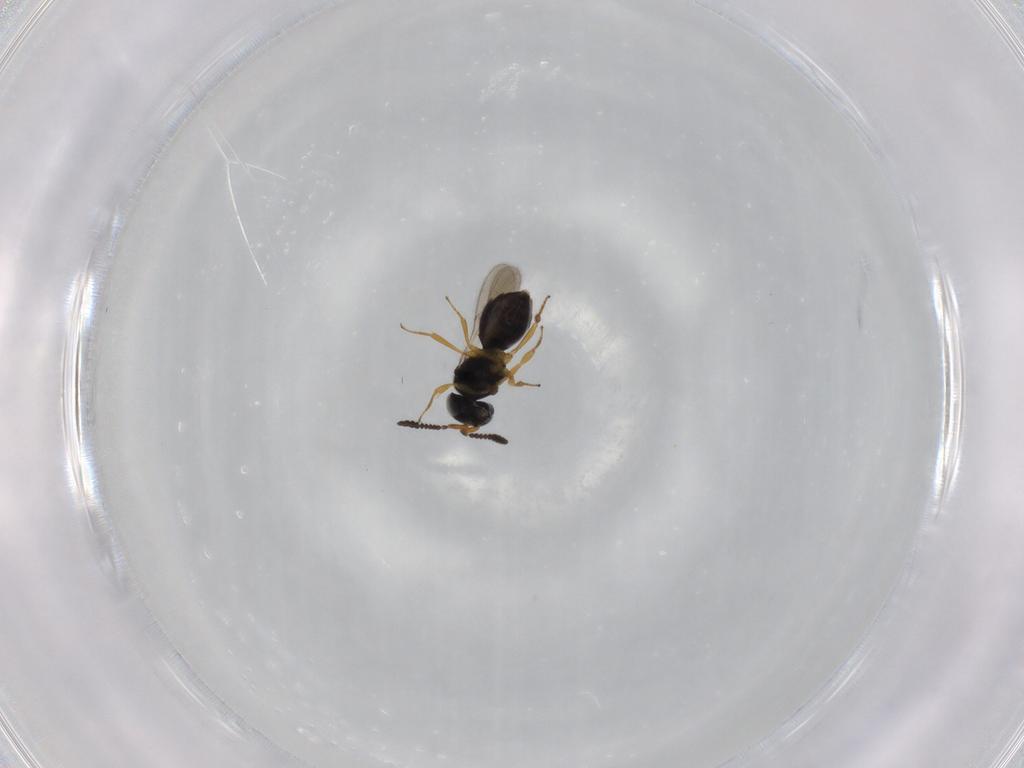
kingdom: Animalia
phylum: Arthropoda
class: Insecta
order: Hymenoptera
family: Scelionidae
